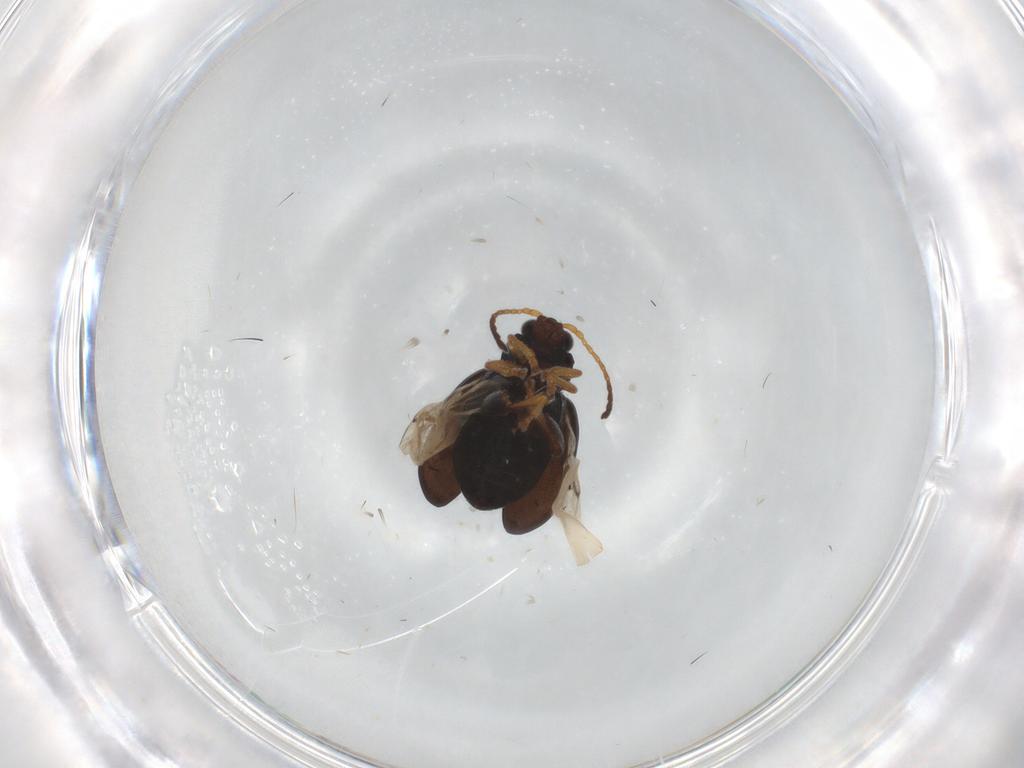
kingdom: Animalia
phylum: Arthropoda
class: Insecta
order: Coleoptera
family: Chrysomelidae
